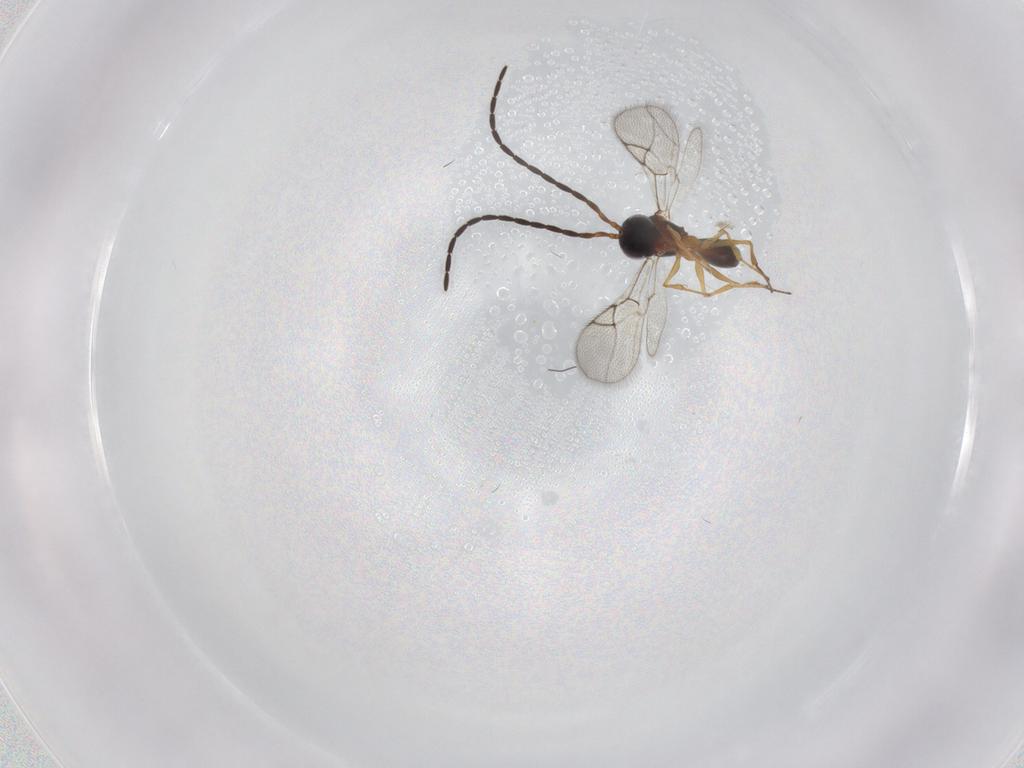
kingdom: Animalia
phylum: Arthropoda
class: Insecta
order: Hymenoptera
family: Figitidae
